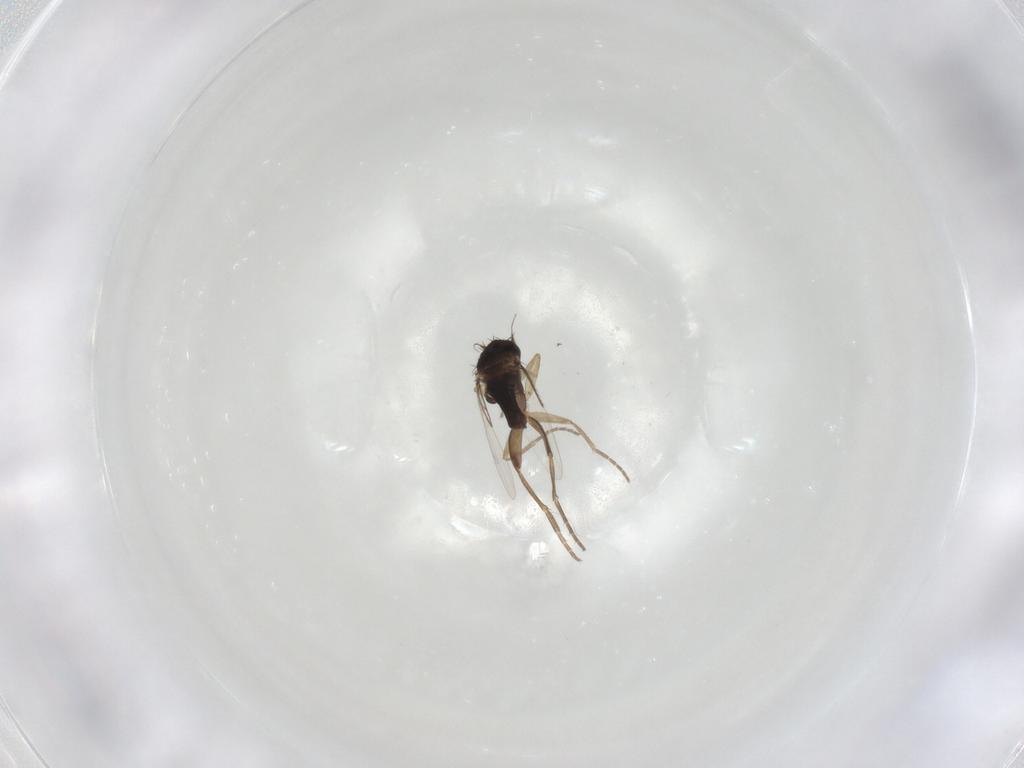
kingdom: Animalia
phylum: Arthropoda
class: Insecta
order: Diptera
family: Phoridae
